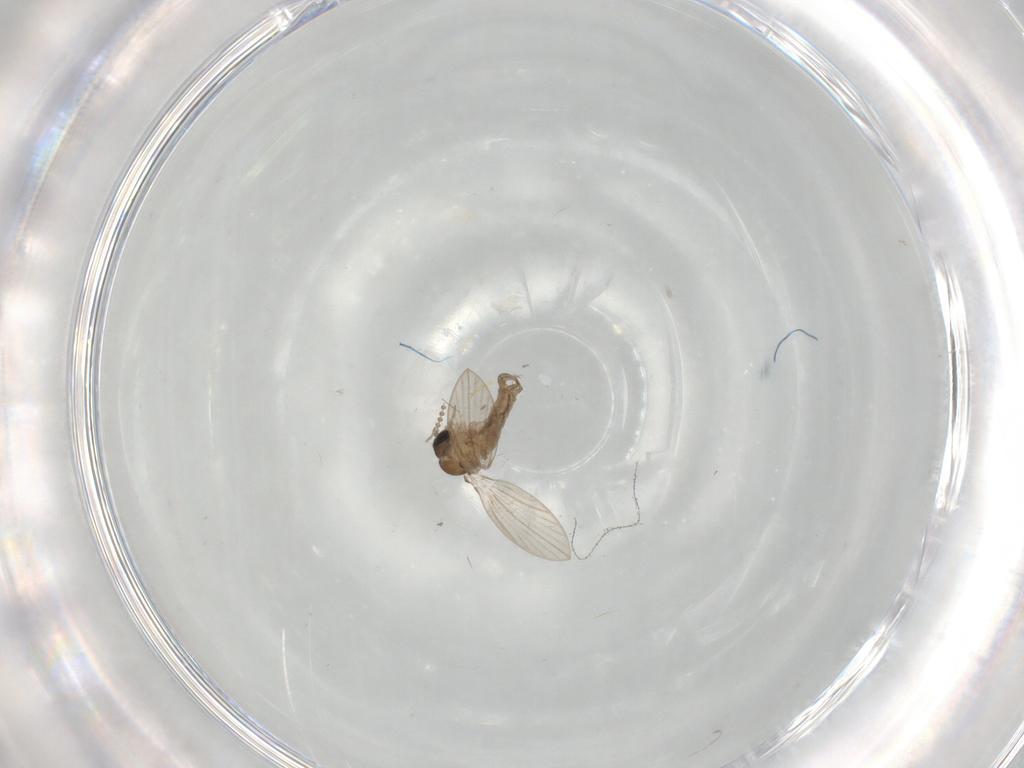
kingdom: Animalia
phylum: Arthropoda
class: Insecta
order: Diptera
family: Psychodidae
